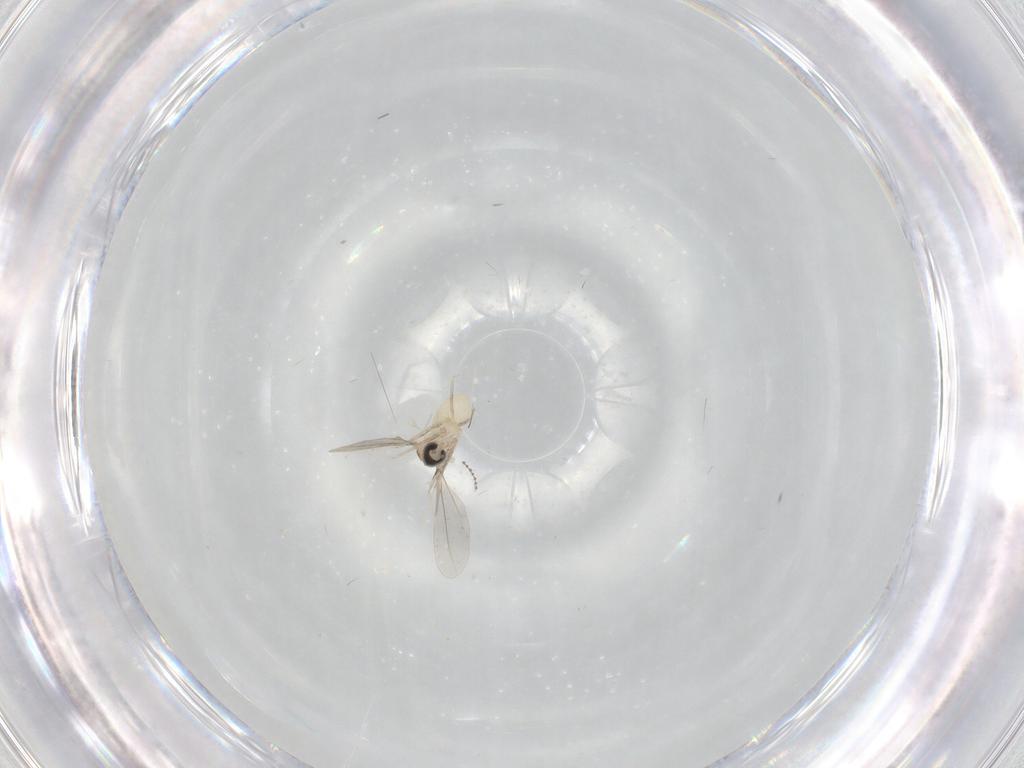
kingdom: Animalia
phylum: Arthropoda
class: Insecta
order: Diptera
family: Cecidomyiidae
